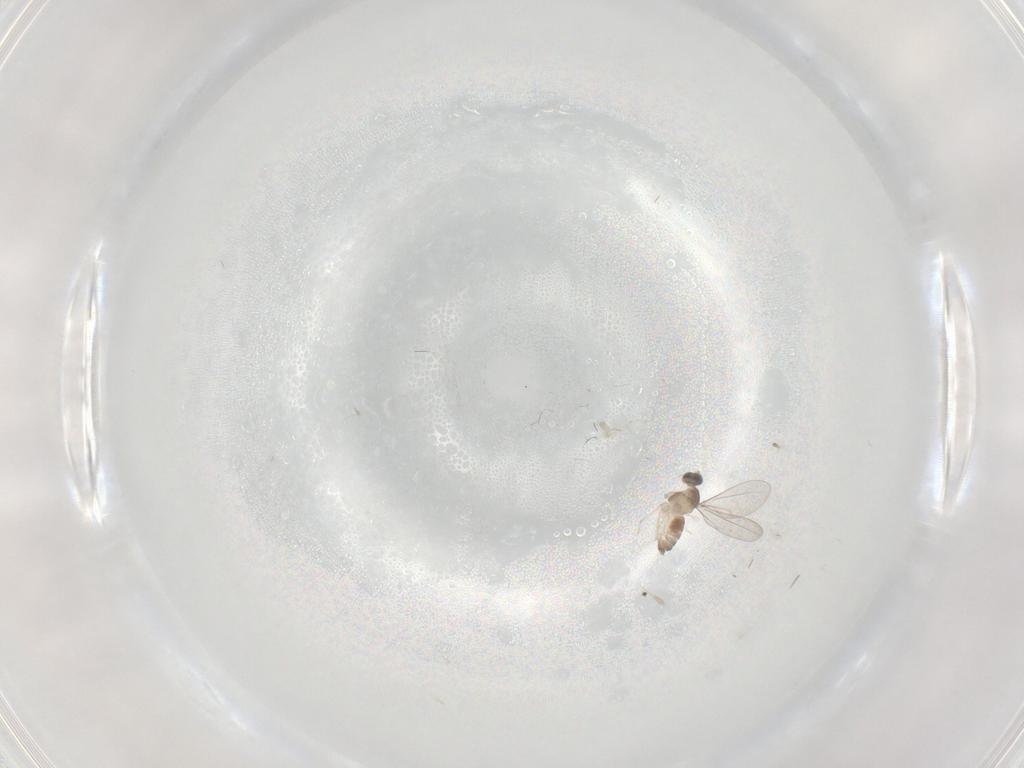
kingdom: Animalia
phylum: Arthropoda
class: Insecta
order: Diptera
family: Cecidomyiidae
